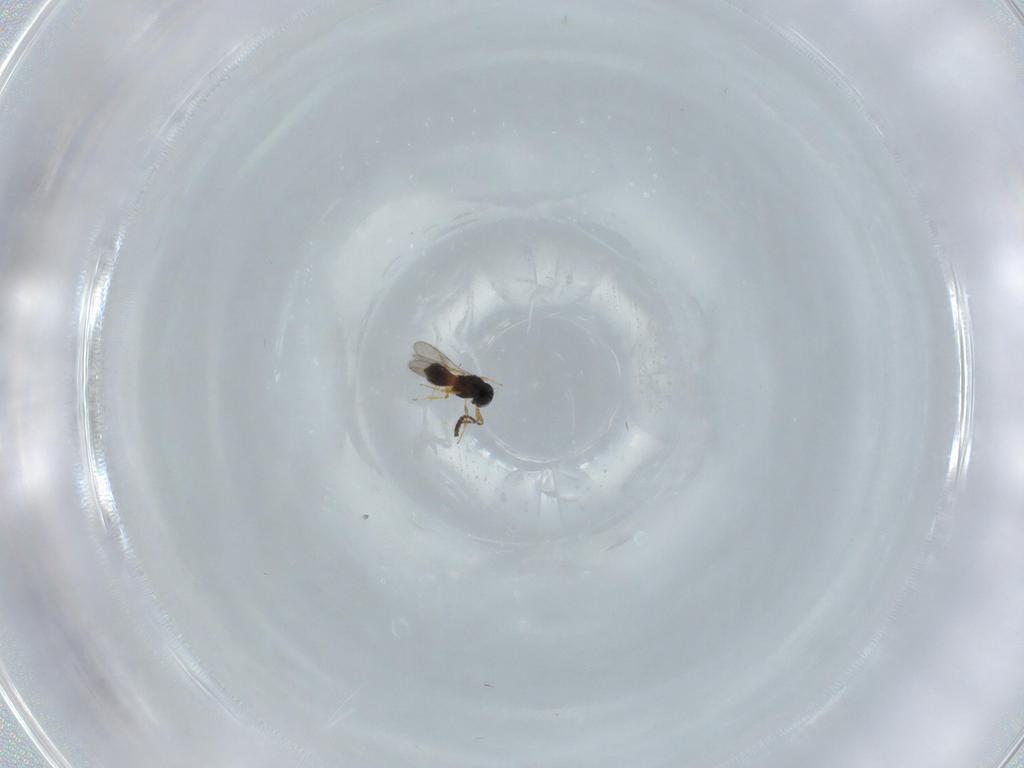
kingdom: Animalia
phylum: Arthropoda
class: Insecta
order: Hymenoptera
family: Scelionidae
